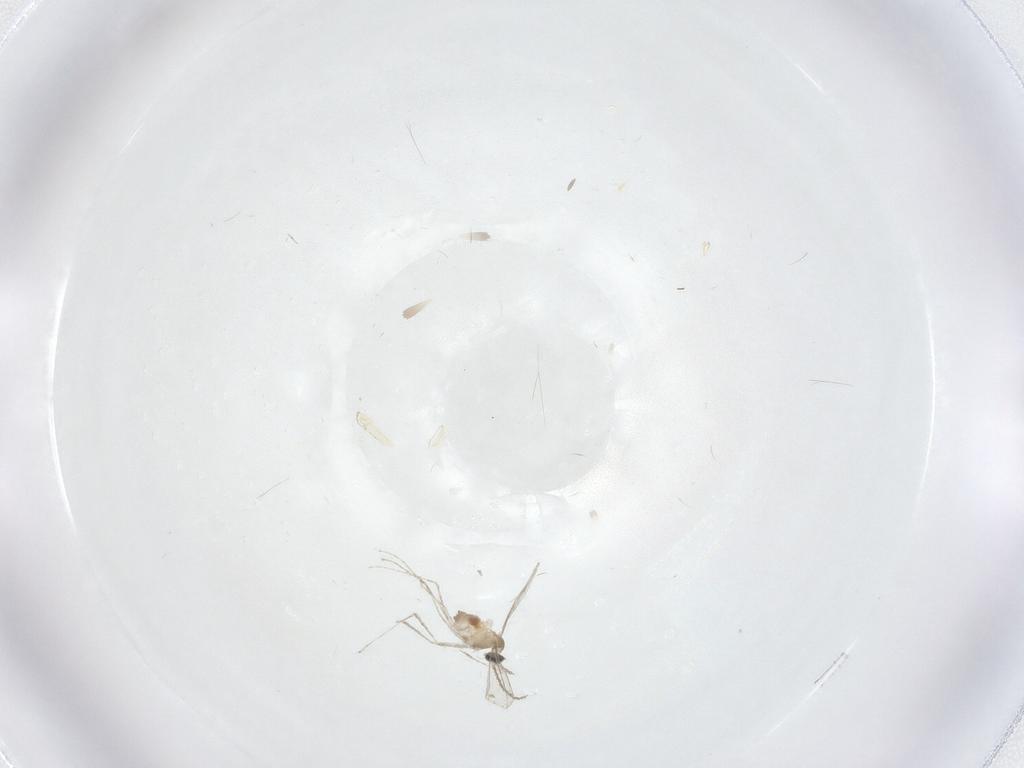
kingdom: Animalia
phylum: Arthropoda
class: Insecta
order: Diptera
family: Cecidomyiidae
